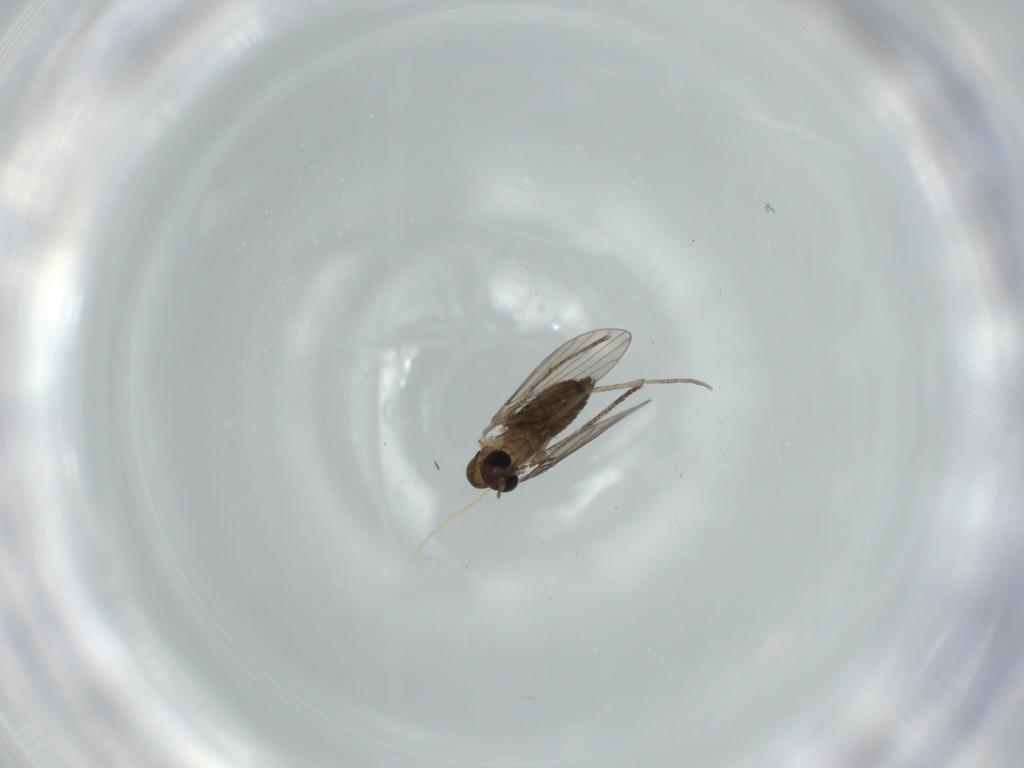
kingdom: Animalia
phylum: Arthropoda
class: Insecta
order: Diptera
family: Psychodidae
